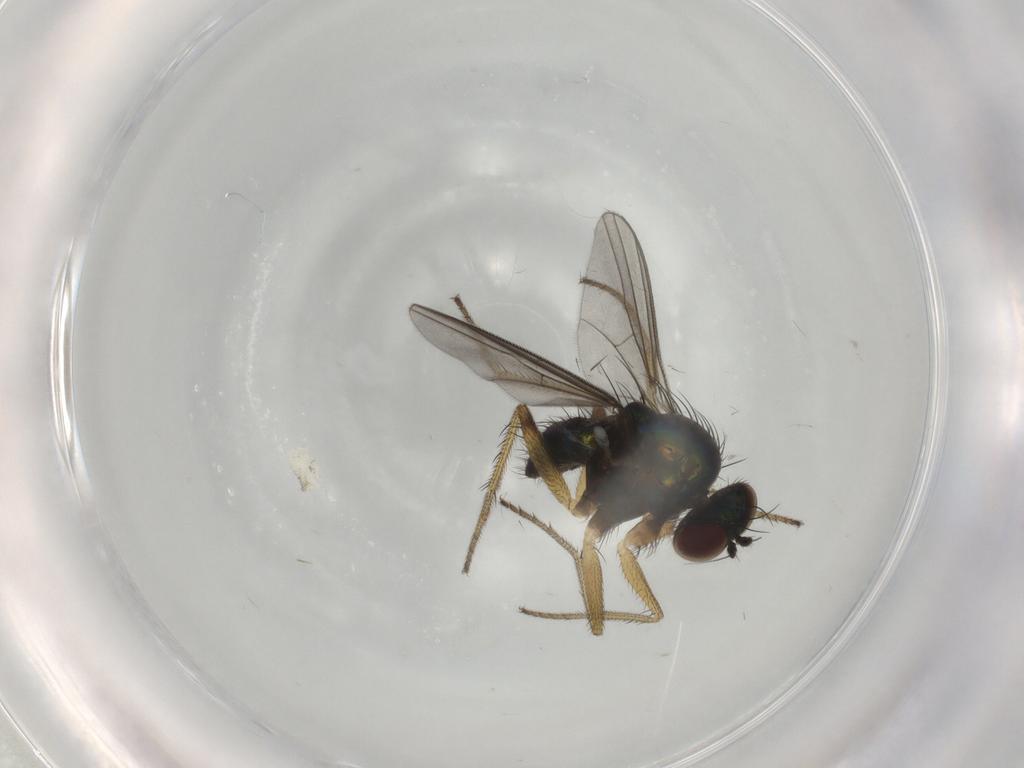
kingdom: Animalia
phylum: Arthropoda
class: Insecta
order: Diptera
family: Dolichopodidae
